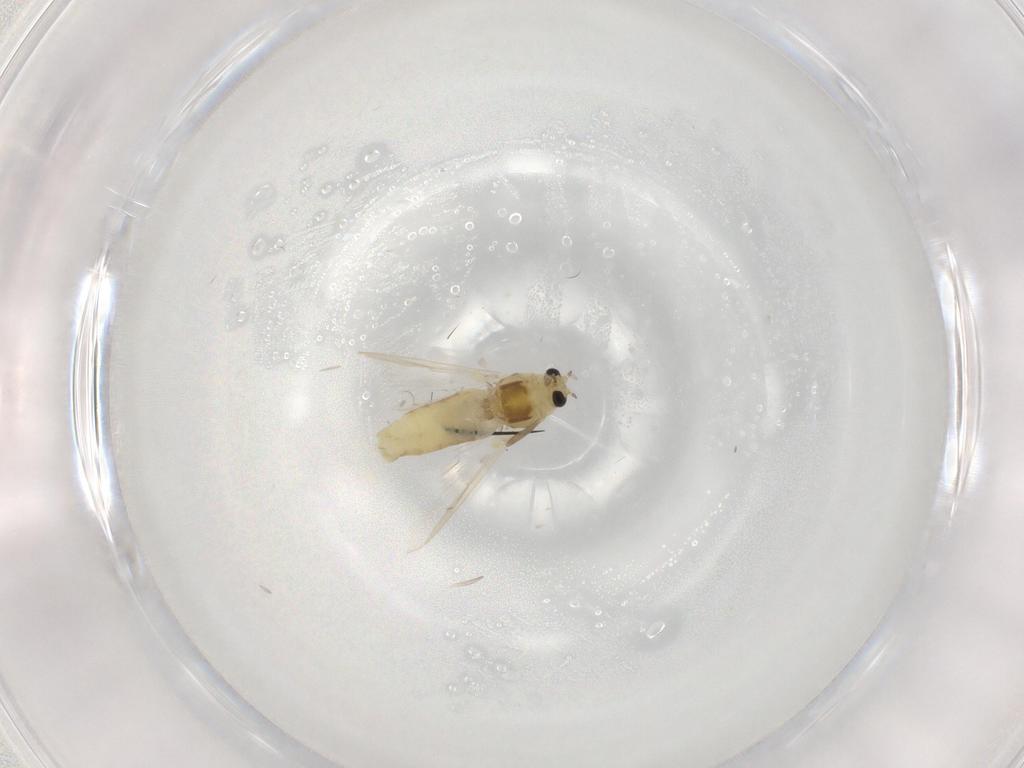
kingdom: Animalia
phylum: Arthropoda
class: Insecta
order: Diptera
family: Chironomidae
